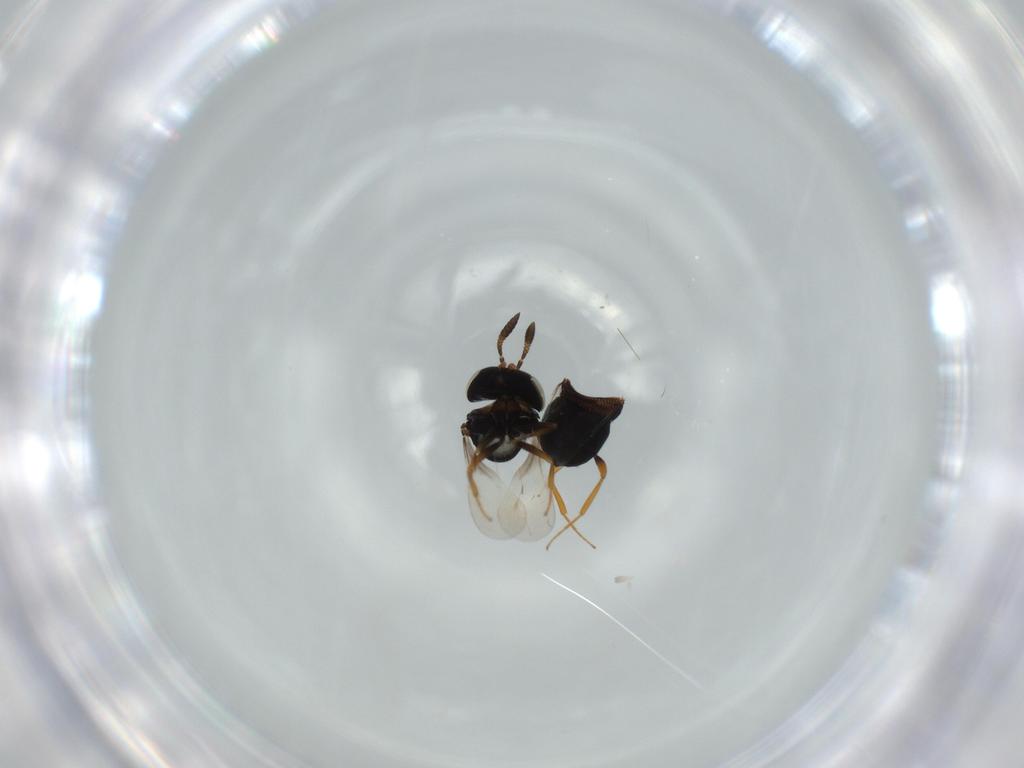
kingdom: Animalia
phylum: Arthropoda
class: Insecta
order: Hymenoptera
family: Scelionidae
